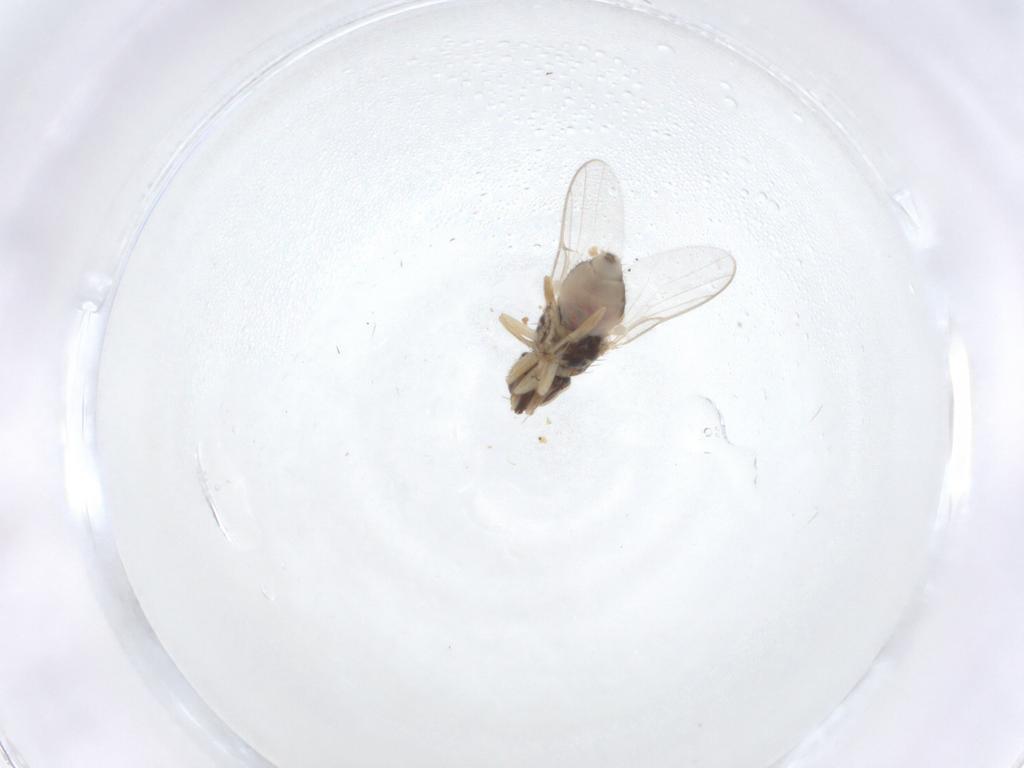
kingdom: Animalia
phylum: Arthropoda
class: Insecta
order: Diptera
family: Chloropidae
